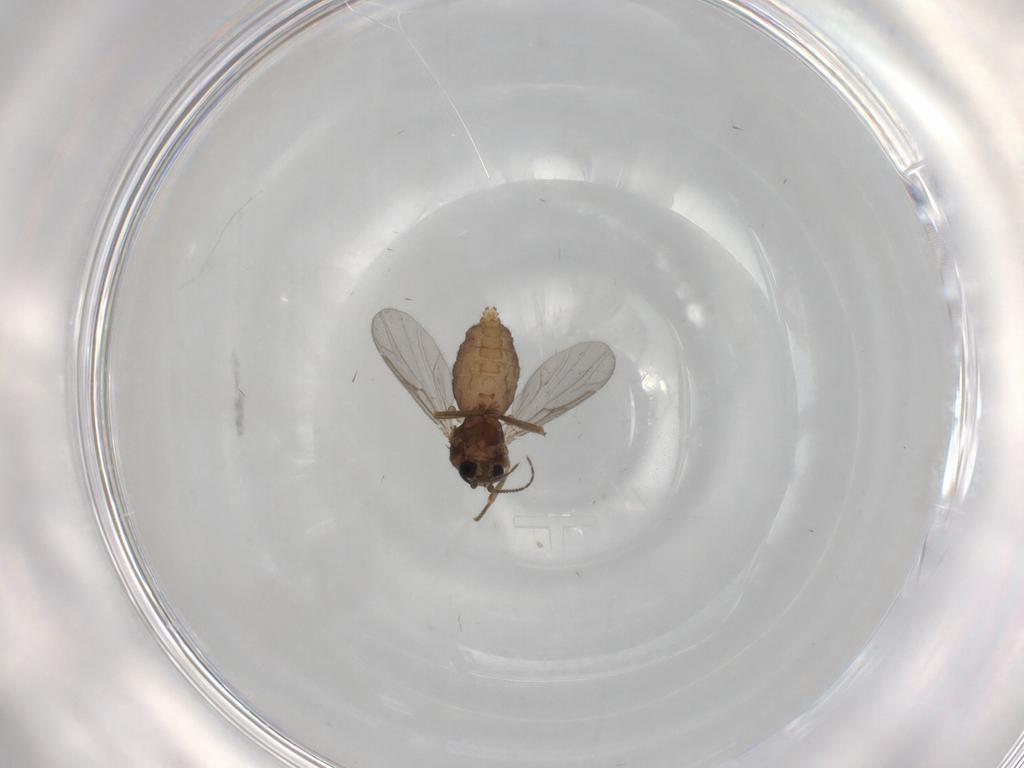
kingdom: Animalia
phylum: Arthropoda
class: Insecta
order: Diptera
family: Ceratopogonidae
